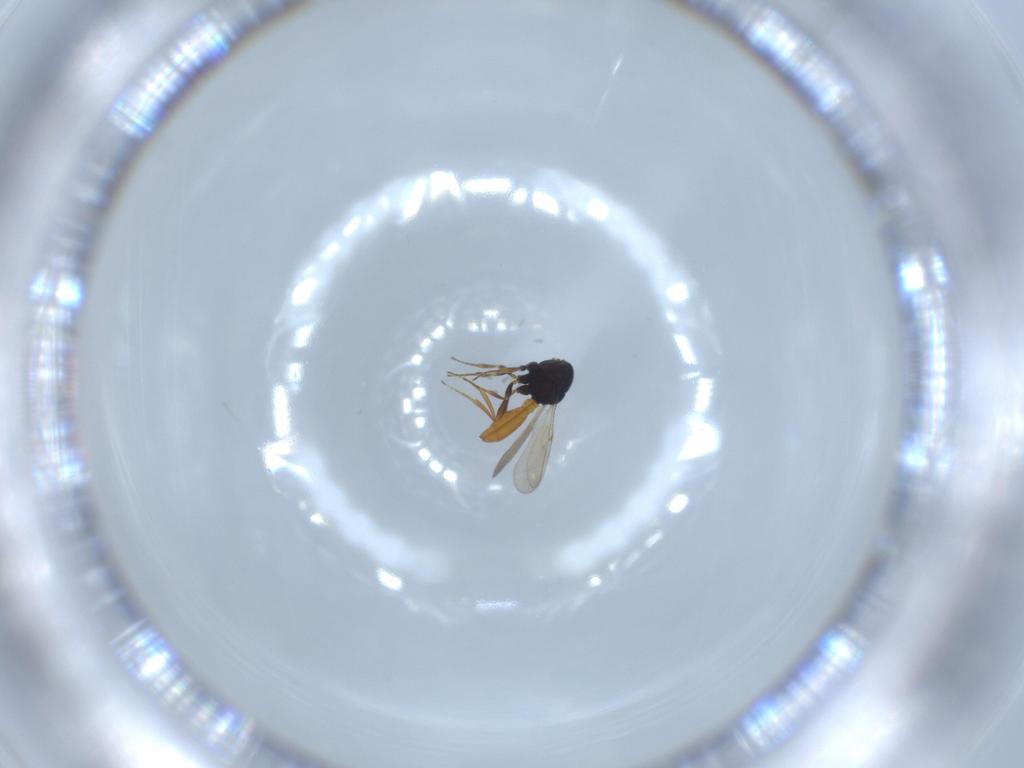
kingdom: Animalia
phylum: Arthropoda
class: Insecta
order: Hymenoptera
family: Scelionidae
